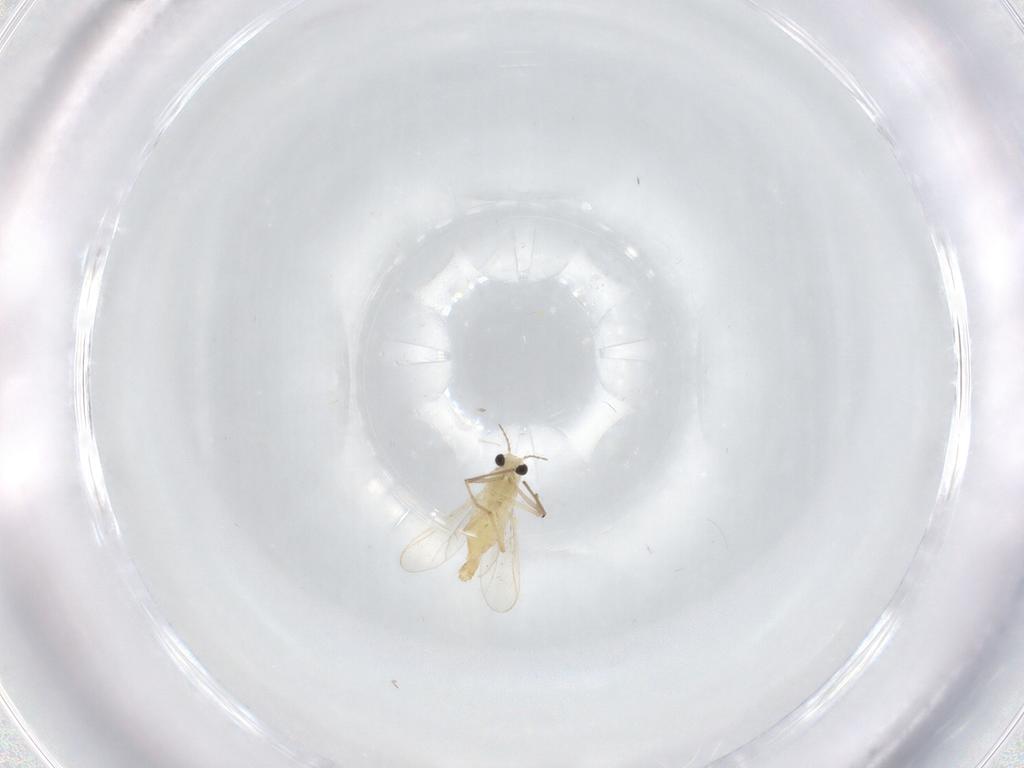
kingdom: Animalia
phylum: Arthropoda
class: Insecta
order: Diptera
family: Chironomidae
